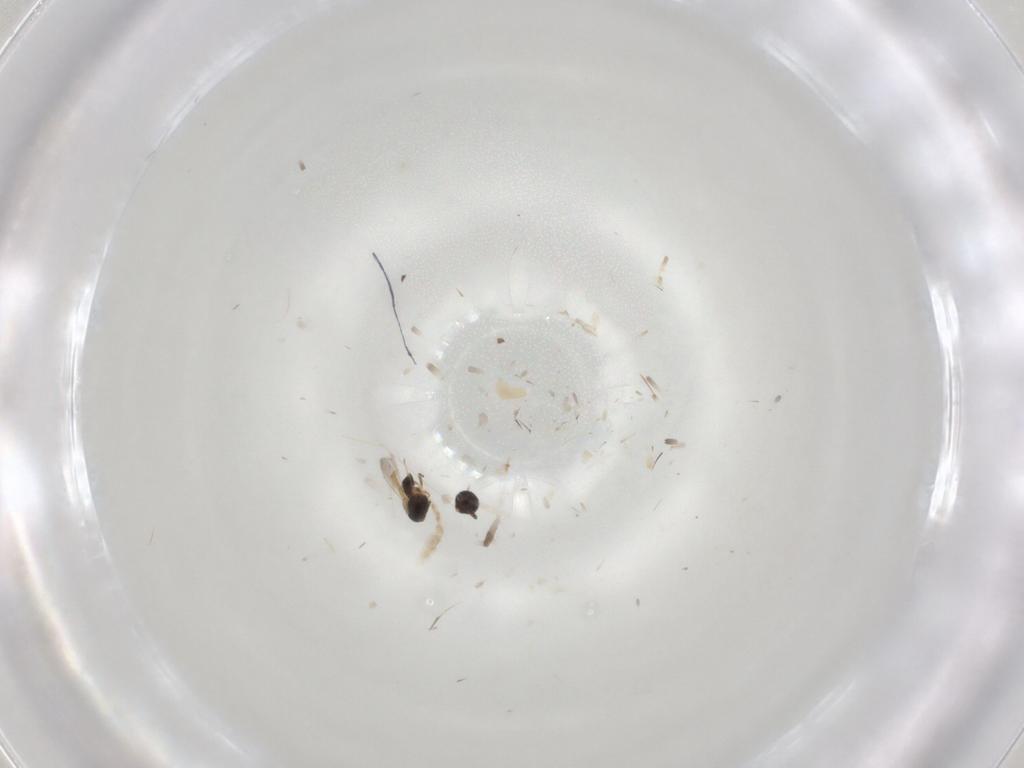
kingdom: Animalia
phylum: Arthropoda
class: Insecta
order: Hymenoptera
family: Scelionidae
